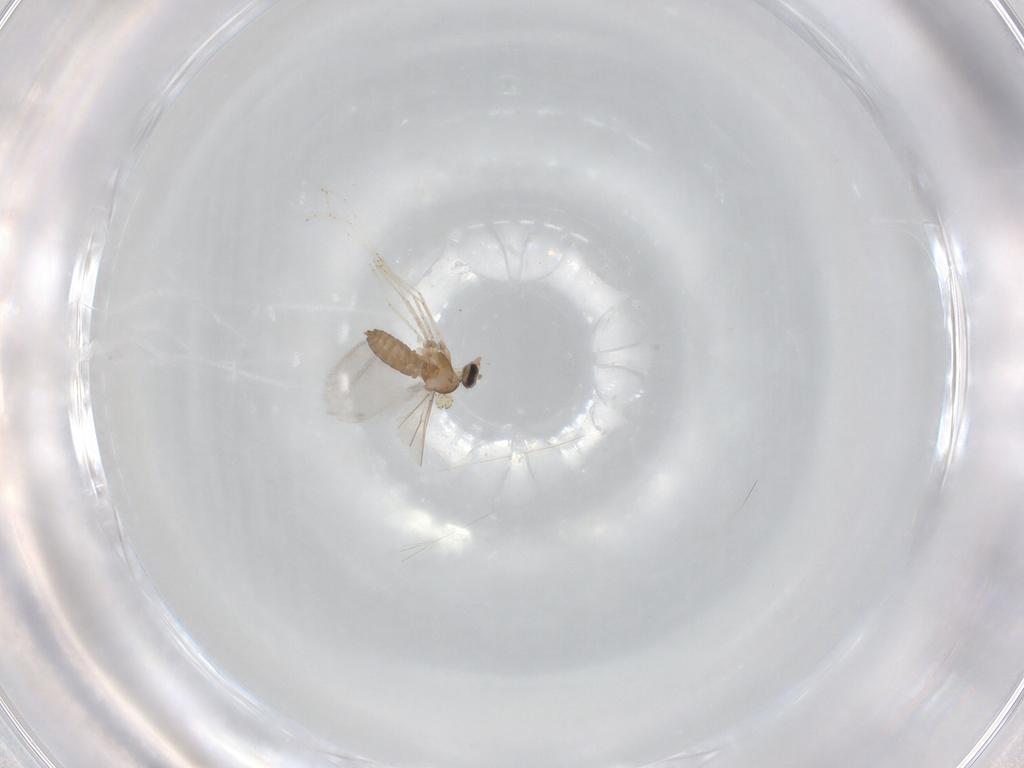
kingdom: Animalia
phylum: Arthropoda
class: Insecta
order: Diptera
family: Cecidomyiidae
